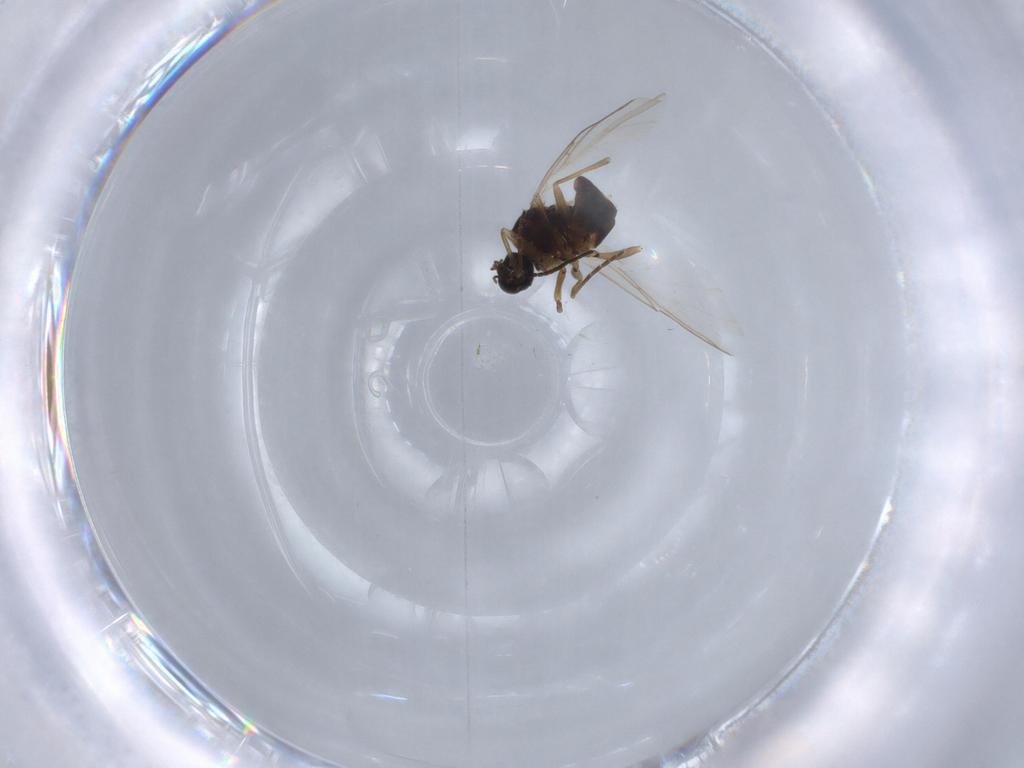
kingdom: Animalia
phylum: Arthropoda
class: Insecta
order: Diptera
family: Sciaridae
